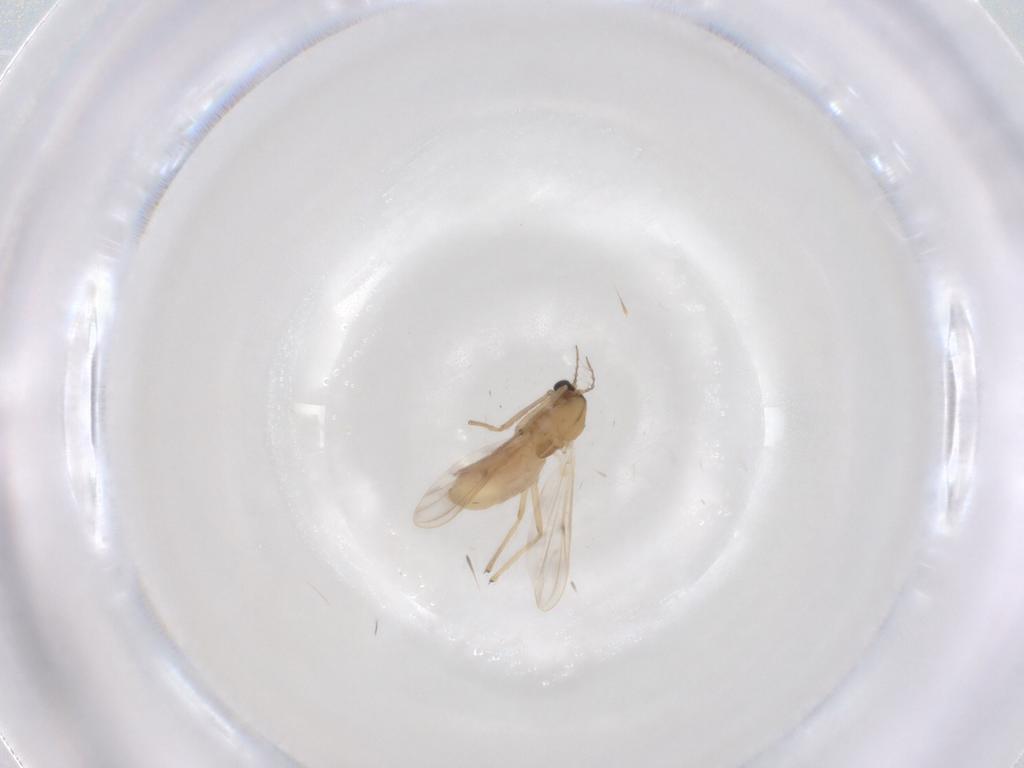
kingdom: Animalia
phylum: Arthropoda
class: Insecta
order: Diptera
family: Chironomidae
